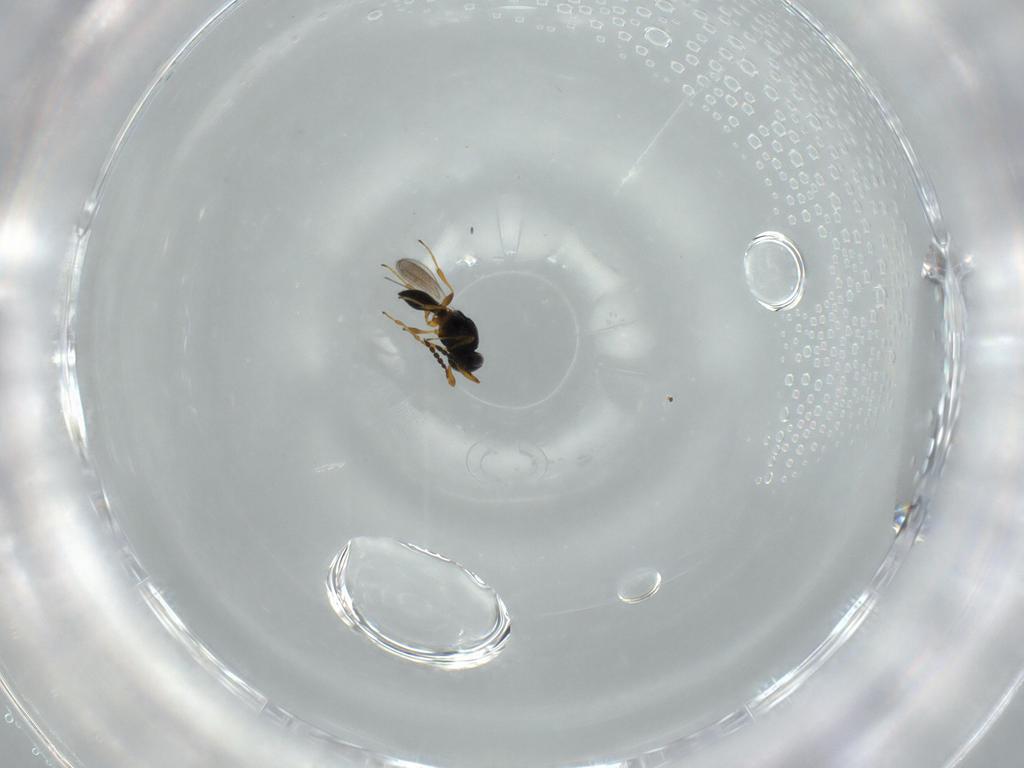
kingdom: Animalia
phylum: Arthropoda
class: Insecta
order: Hymenoptera
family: Platygastridae
